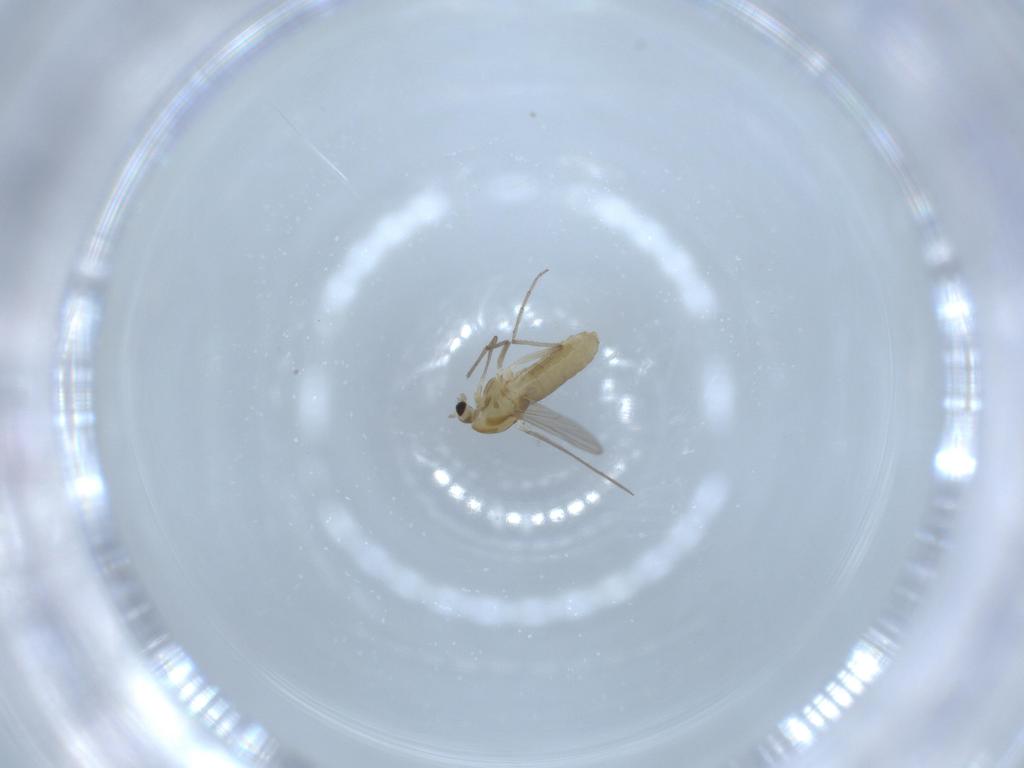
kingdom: Animalia
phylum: Arthropoda
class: Insecta
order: Diptera
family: Chironomidae
